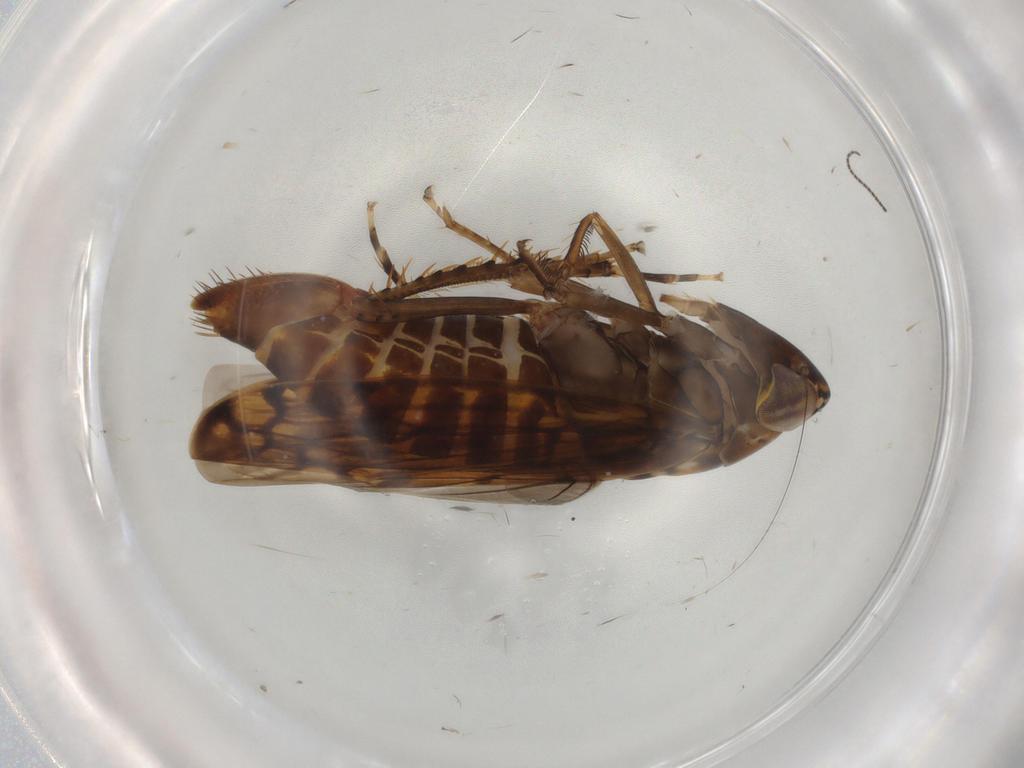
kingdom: Animalia
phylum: Arthropoda
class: Insecta
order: Hemiptera
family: Cicadellidae
